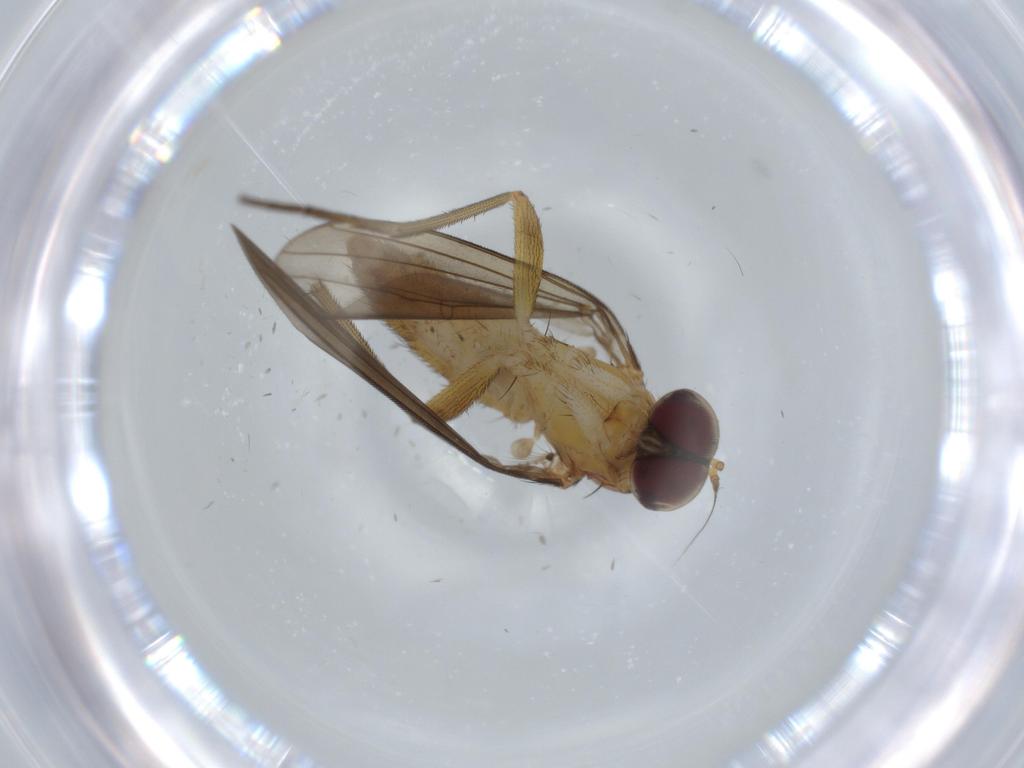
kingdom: Animalia
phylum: Arthropoda
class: Insecta
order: Diptera
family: Dolichopodidae
